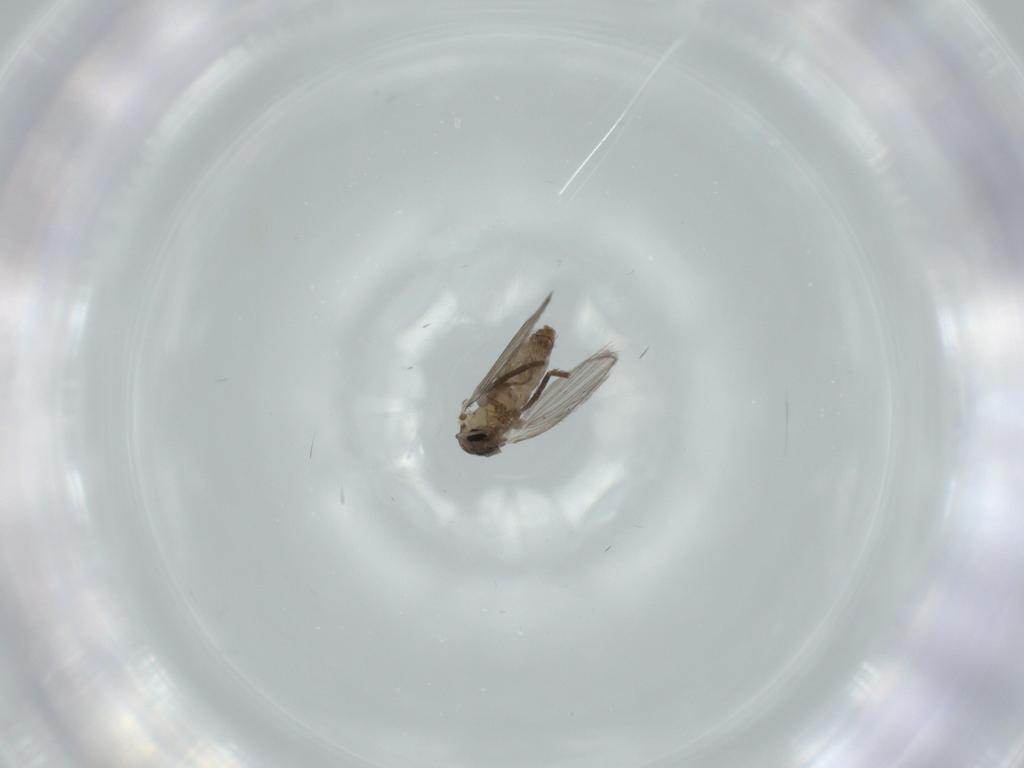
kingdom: Animalia
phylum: Arthropoda
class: Insecta
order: Diptera
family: Psychodidae
